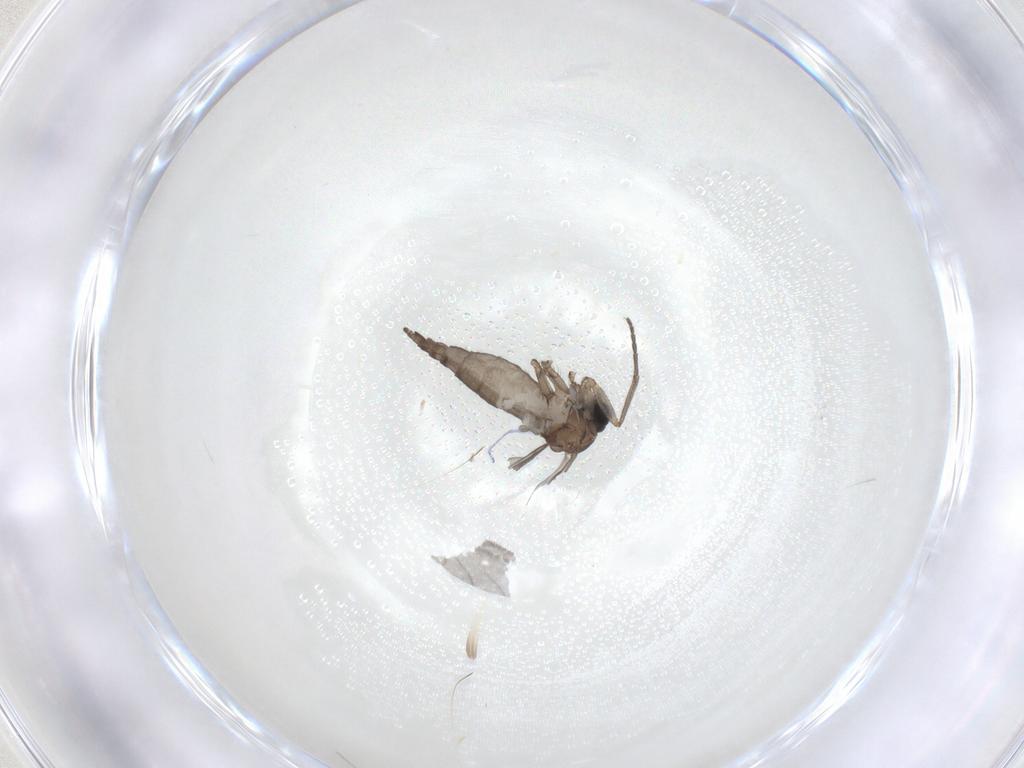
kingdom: Animalia
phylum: Arthropoda
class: Insecta
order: Diptera
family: Sciaridae
